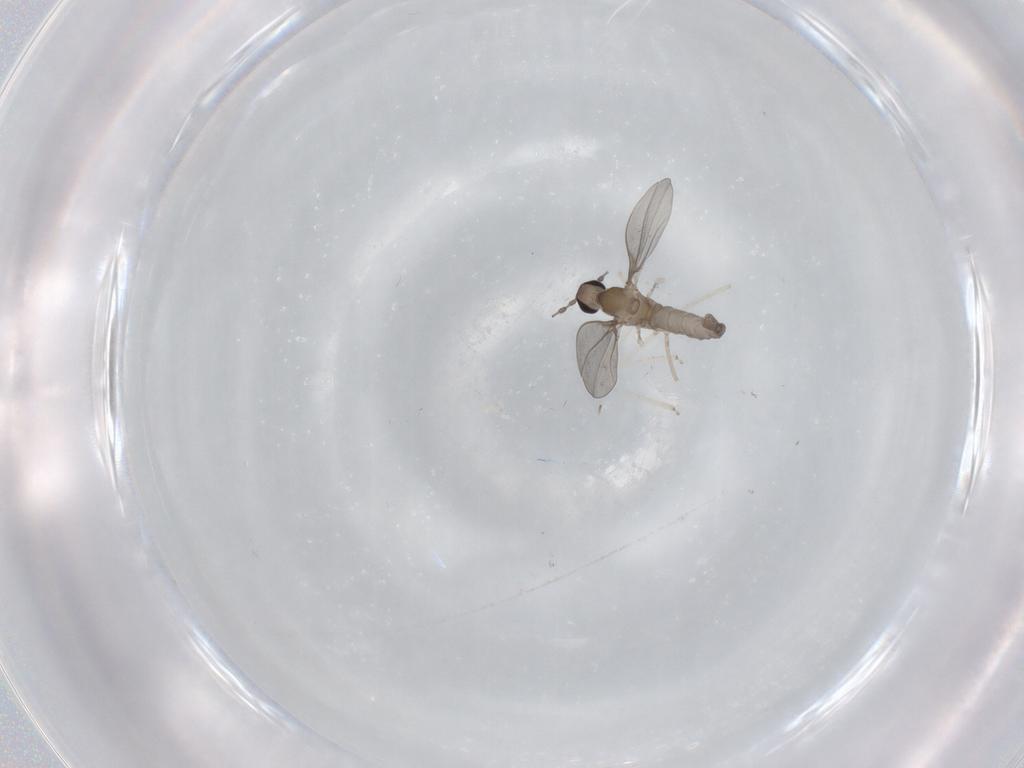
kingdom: Animalia
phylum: Arthropoda
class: Insecta
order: Diptera
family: Cecidomyiidae
